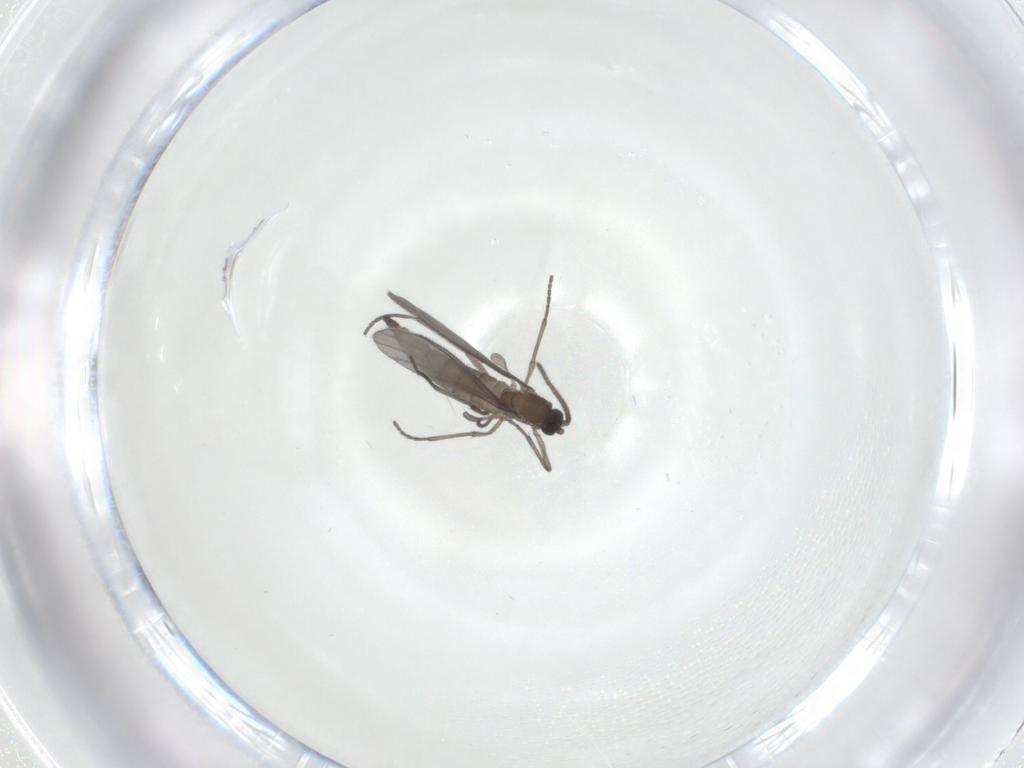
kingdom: Animalia
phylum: Arthropoda
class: Insecta
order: Diptera
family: Sciaridae
